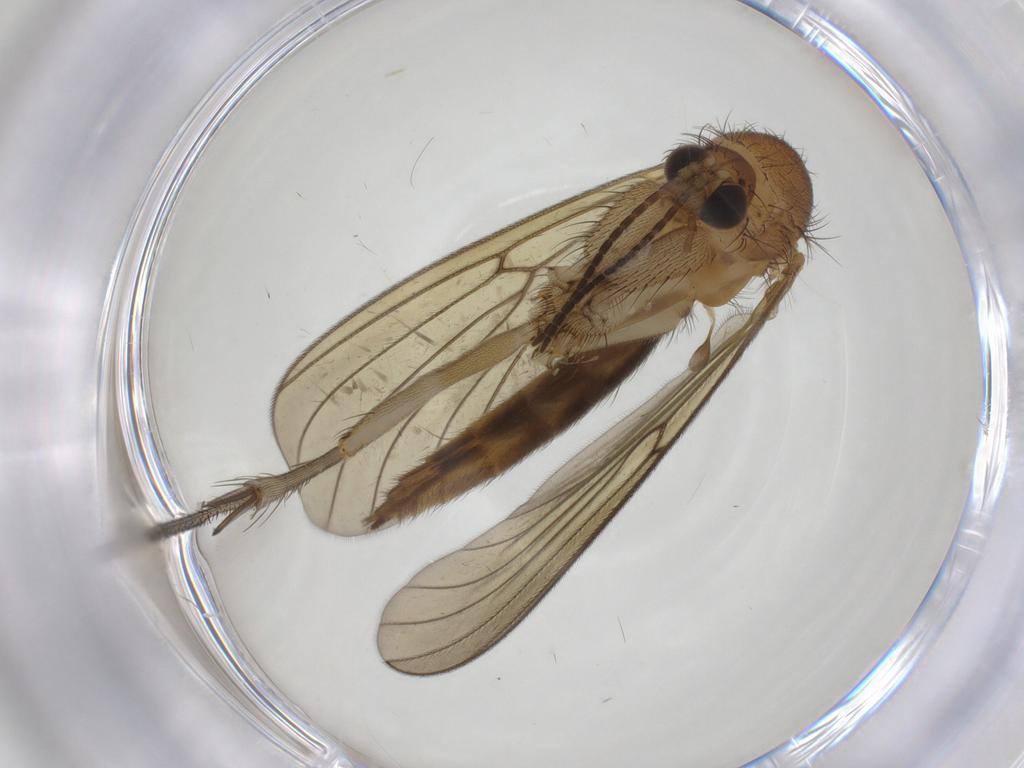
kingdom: Animalia
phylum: Arthropoda
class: Insecta
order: Diptera
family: Mycetophilidae
